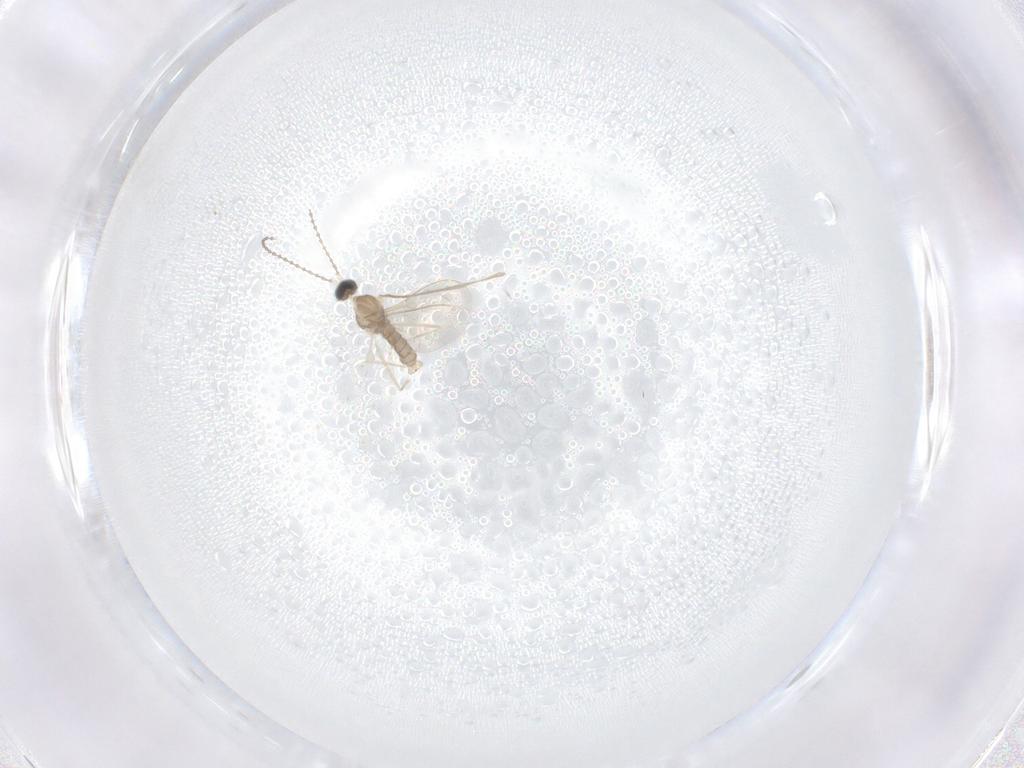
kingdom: Animalia
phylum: Arthropoda
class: Insecta
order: Diptera
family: Cecidomyiidae
